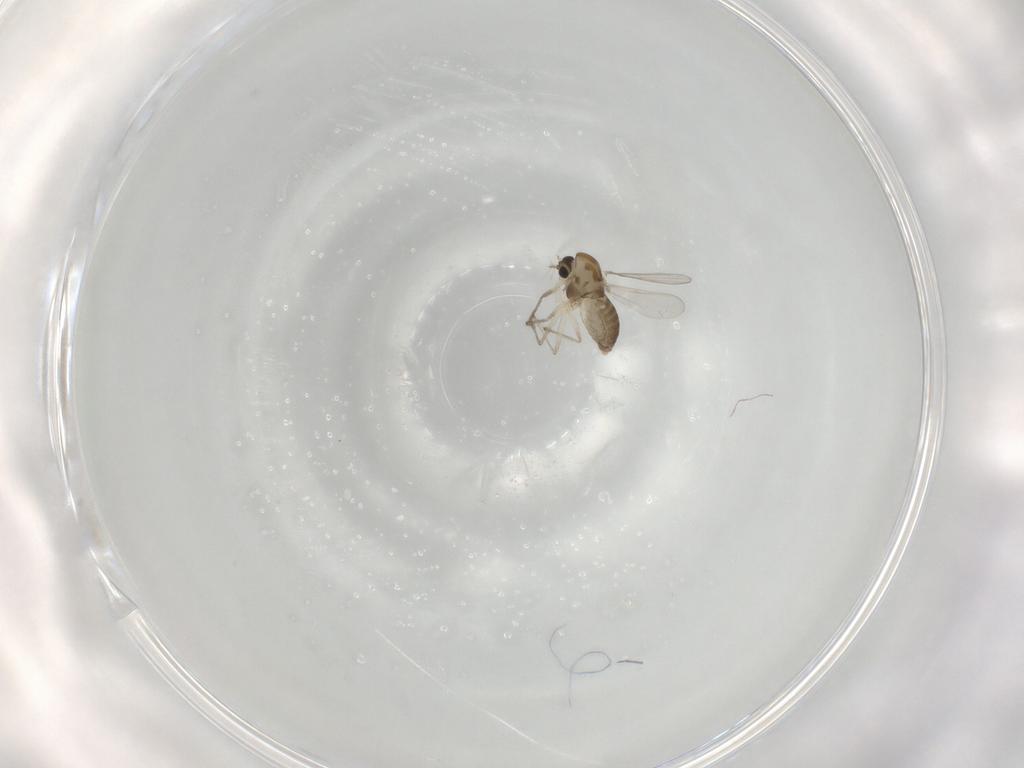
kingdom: Animalia
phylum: Arthropoda
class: Insecta
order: Diptera
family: Chironomidae
